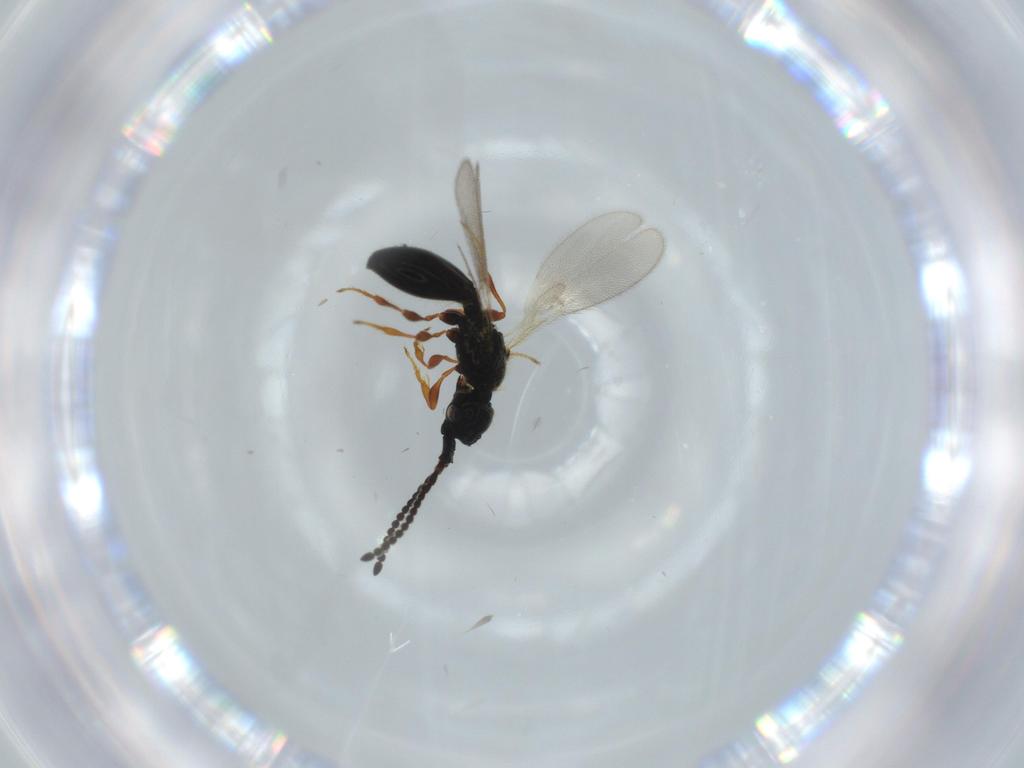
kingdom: Animalia
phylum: Arthropoda
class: Insecta
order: Hymenoptera
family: Diapriidae
